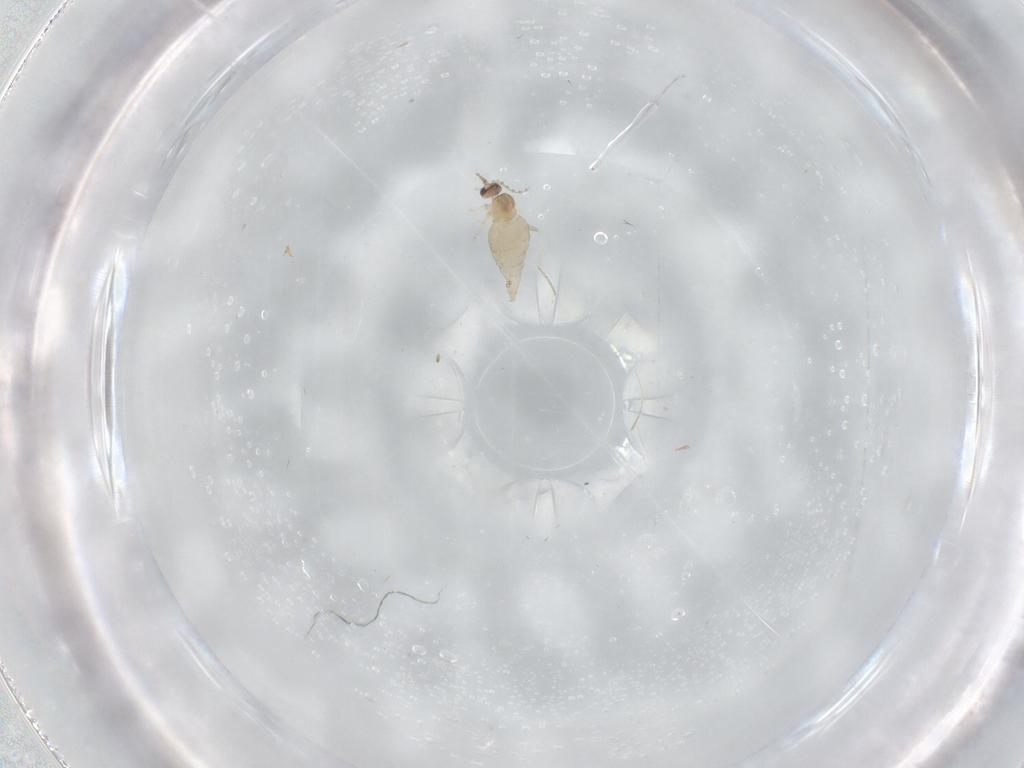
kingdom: Animalia
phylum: Arthropoda
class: Insecta
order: Diptera
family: Cecidomyiidae
